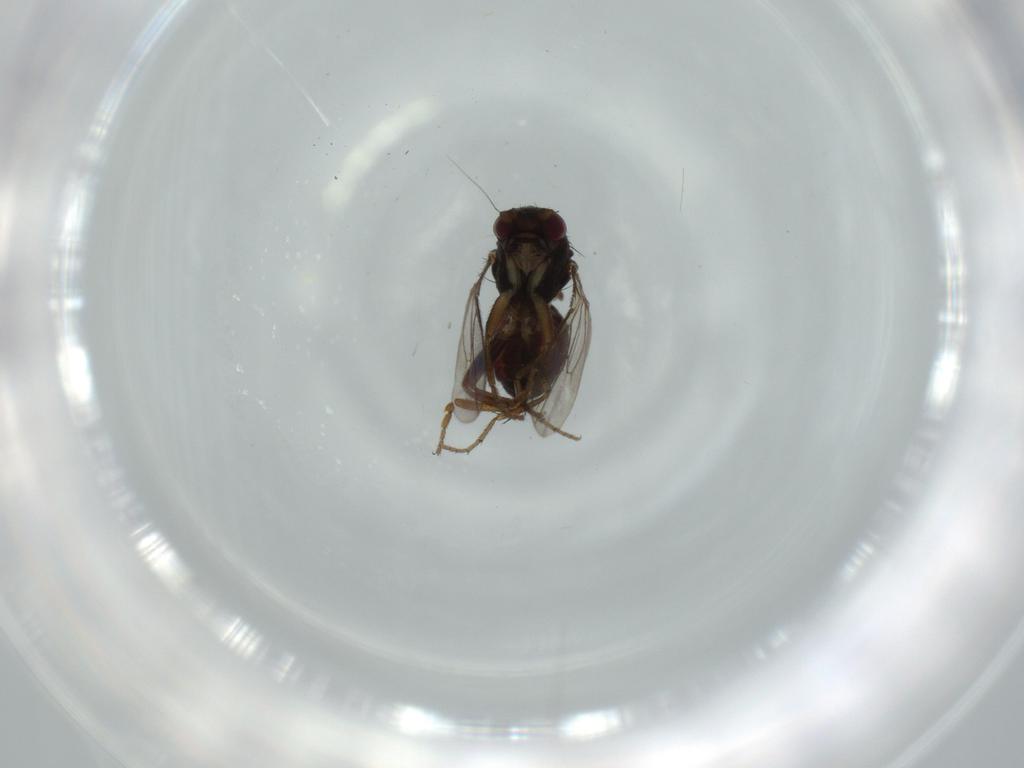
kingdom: Animalia
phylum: Arthropoda
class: Insecta
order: Diptera
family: Sphaeroceridae
